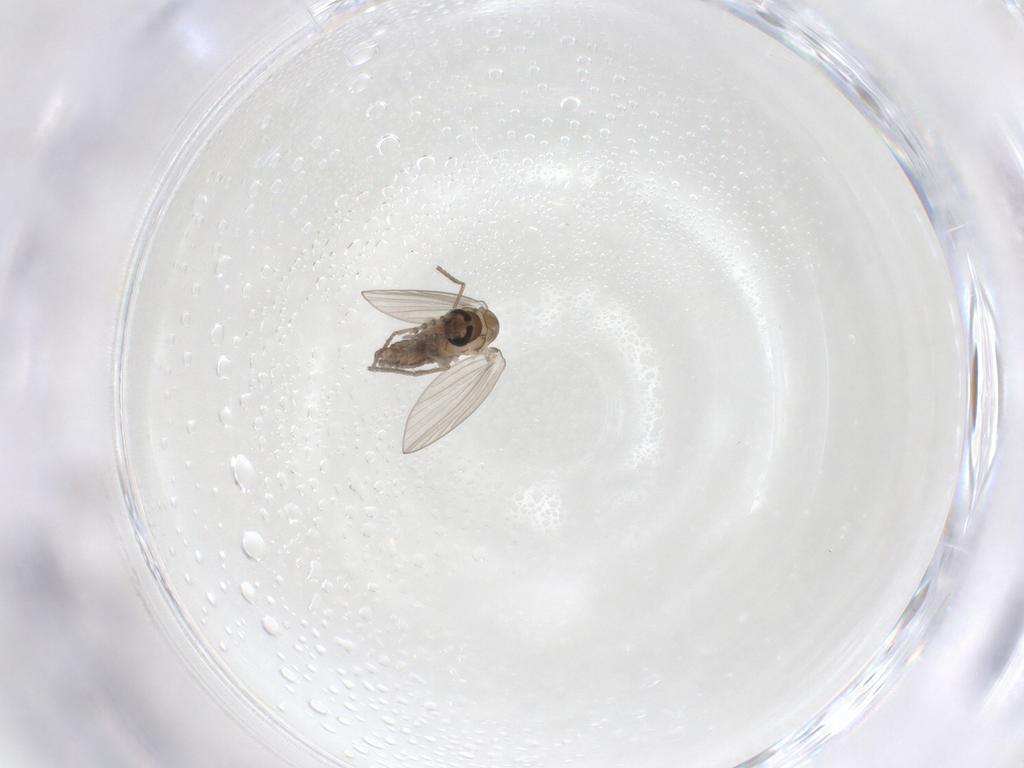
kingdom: Animalia
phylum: Arthropoda
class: Insecta
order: Diptera
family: Psychodidae
